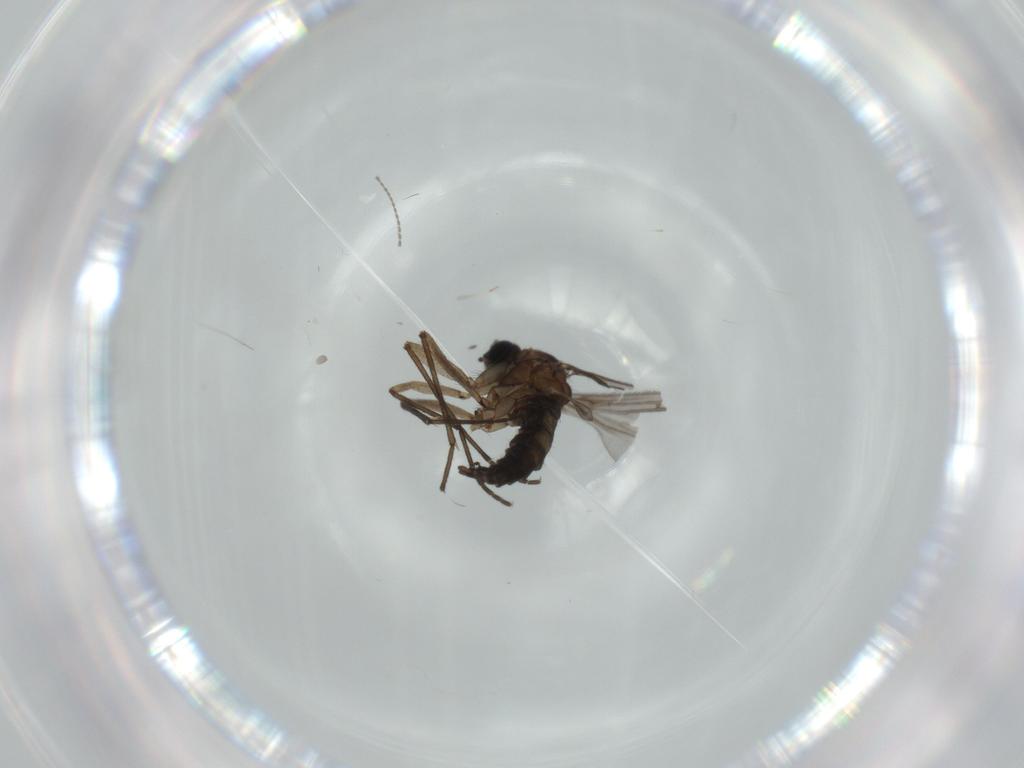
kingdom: Animalia
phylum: Arthropoda
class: Insecta
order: Diptera
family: Sciaridae
